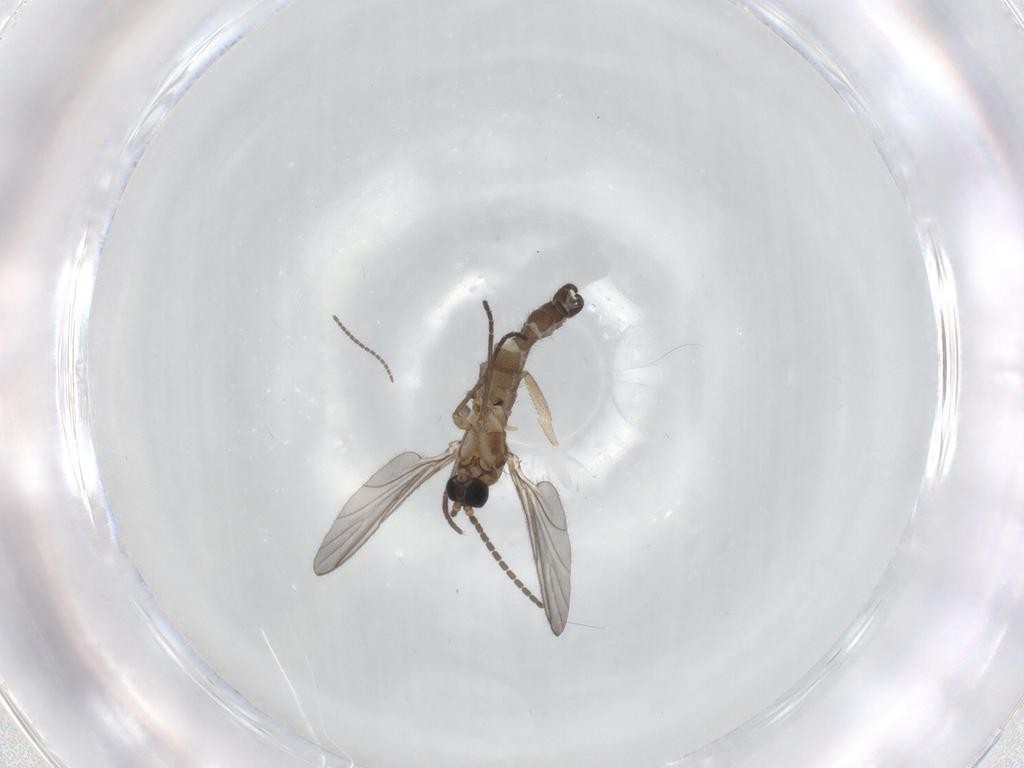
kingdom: Animalia
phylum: Arthropoda
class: Insecta
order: Diptera
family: Sciaridae
